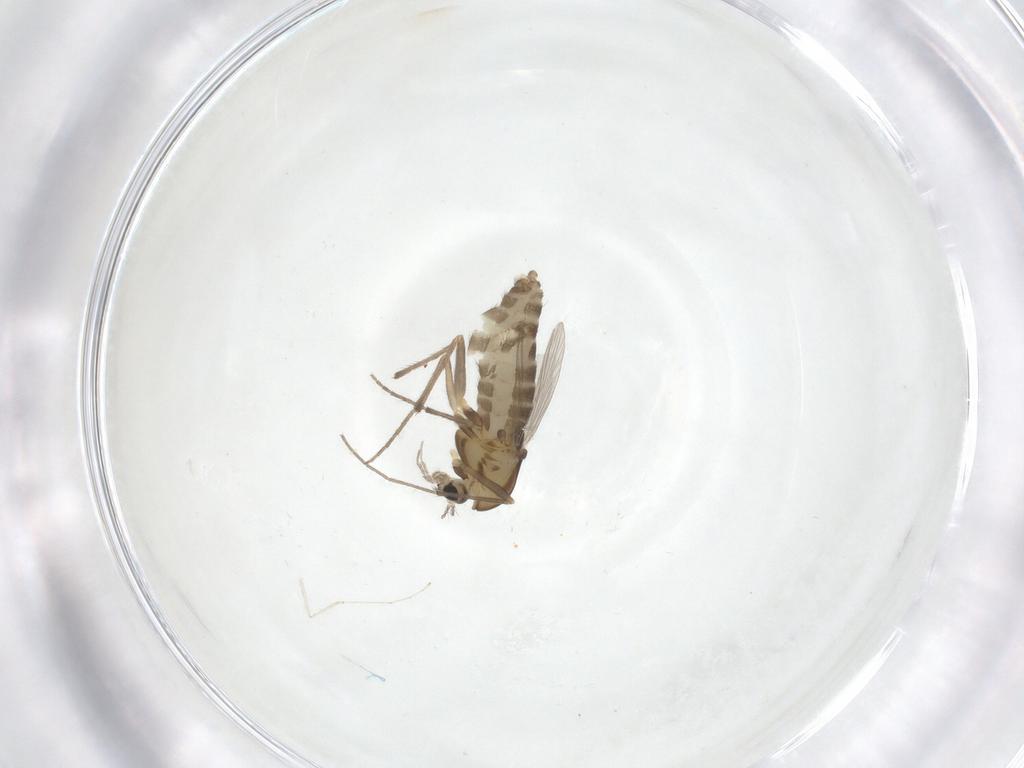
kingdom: Animalia
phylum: Arthropoda
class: Insecta
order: Diptera
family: Chironomidae
